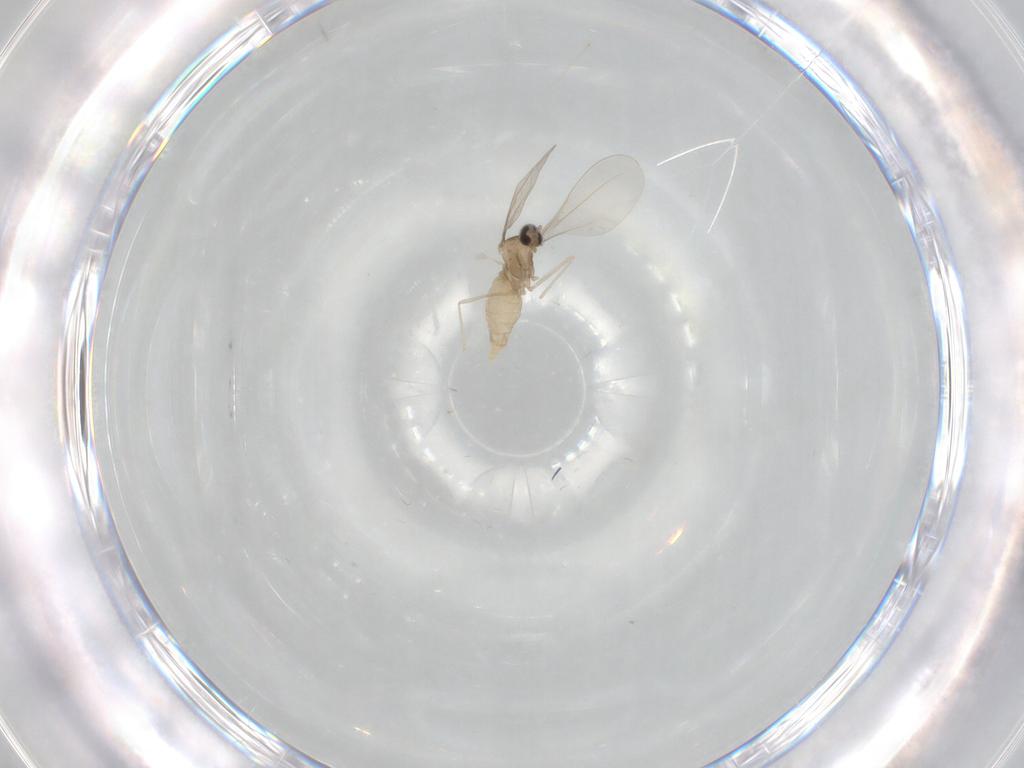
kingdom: Animalia
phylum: Arthropoda
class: Insecta
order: Diptera
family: Cecidomyiidae
